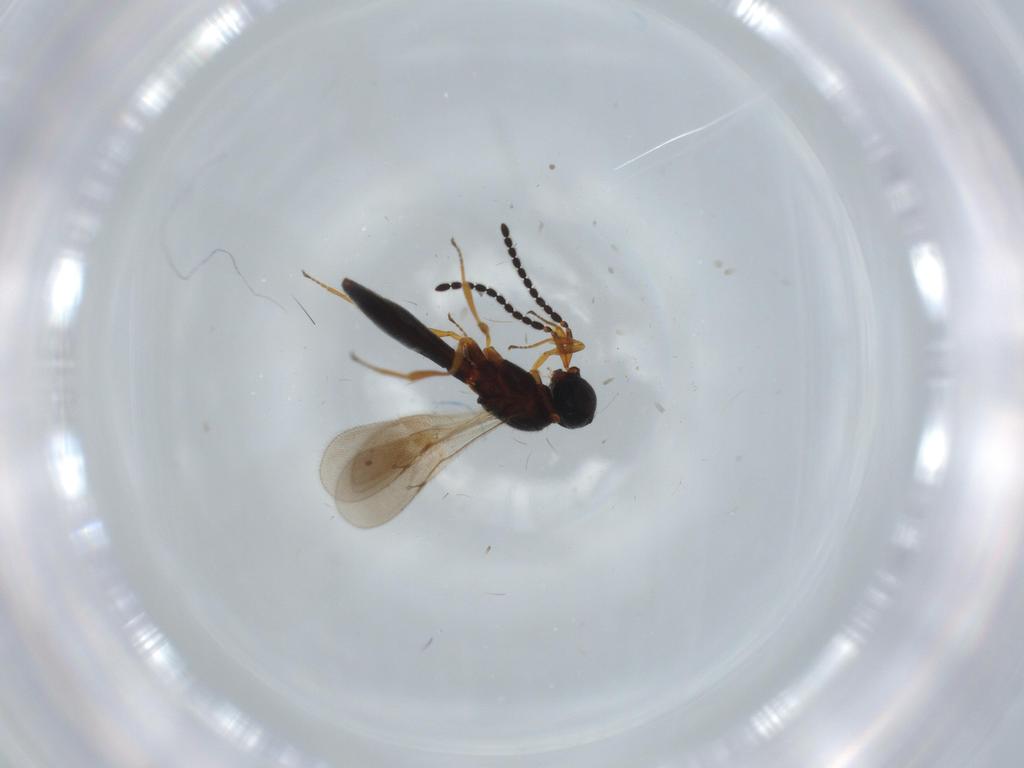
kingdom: Animalia
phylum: Arthropoda
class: Insecta
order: Hymenoptera
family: Scelionidae
